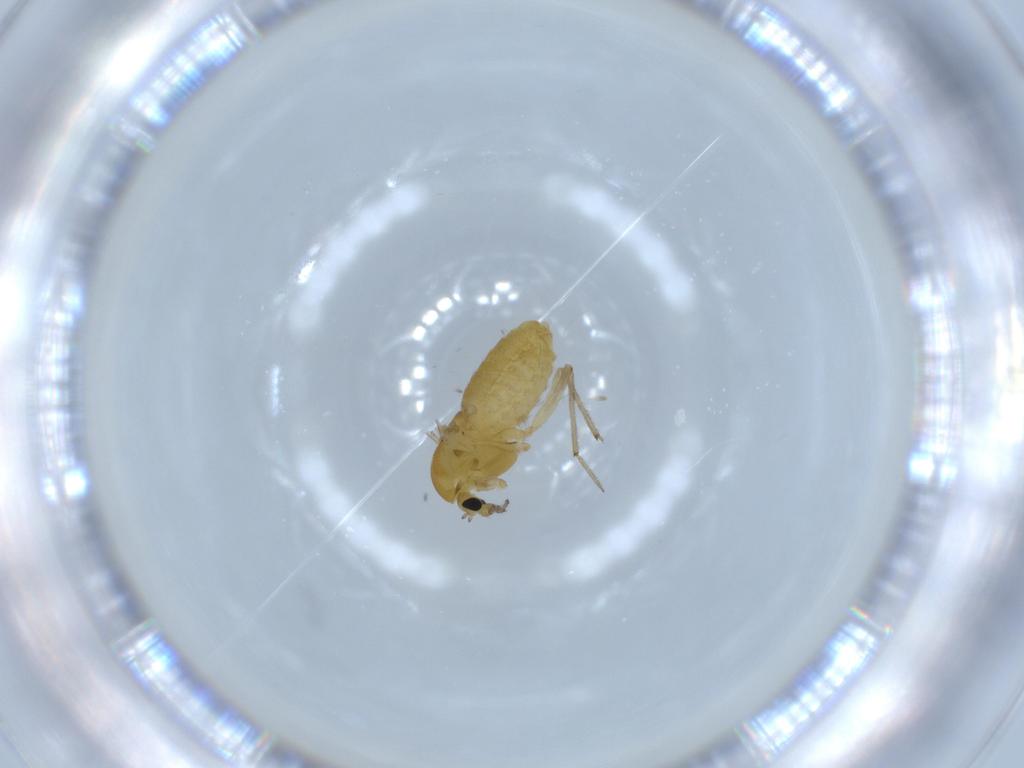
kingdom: Animalia
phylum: Arthropoda
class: Insecta
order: Diptera
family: Chironomidae
